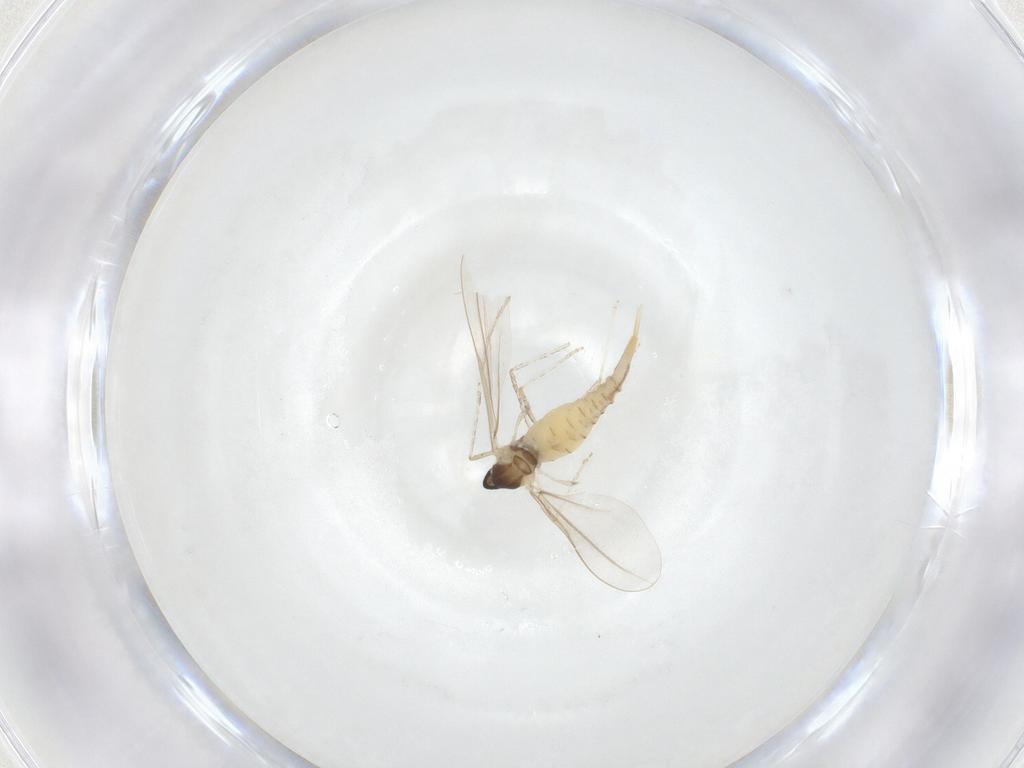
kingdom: Animalia
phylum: Arthropoda
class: Insecta
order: Diptera
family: Cecidomyiidae
